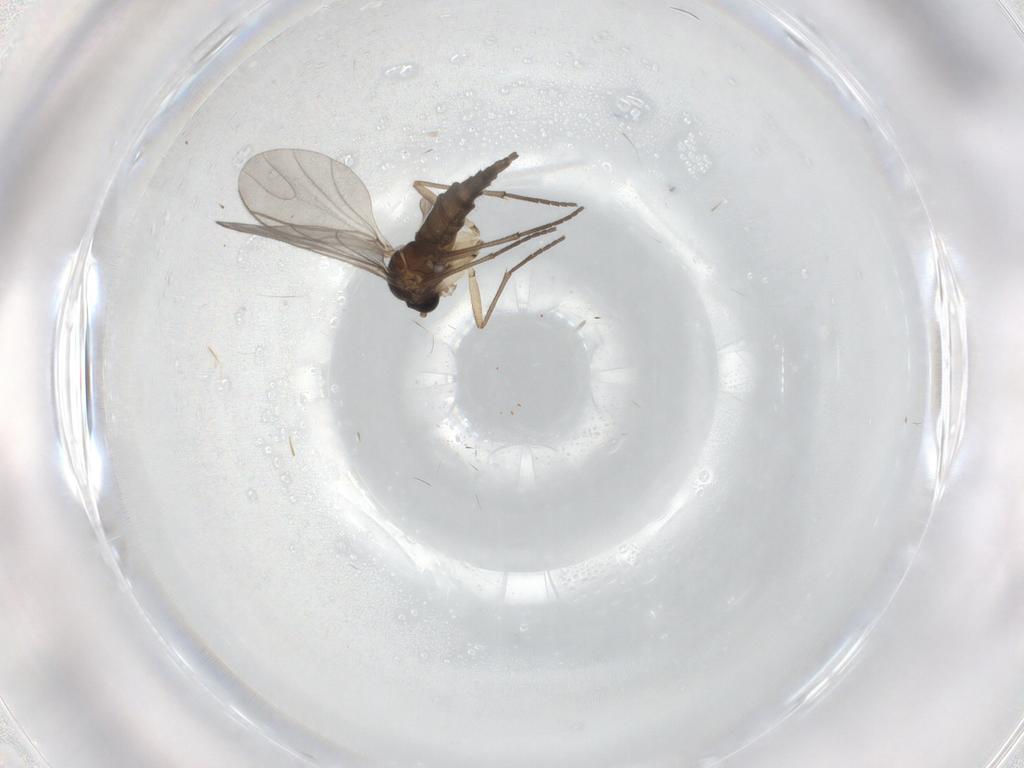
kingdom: Animalia
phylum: Arthropoda
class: Insecta
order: Diptera
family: Sciaridae
